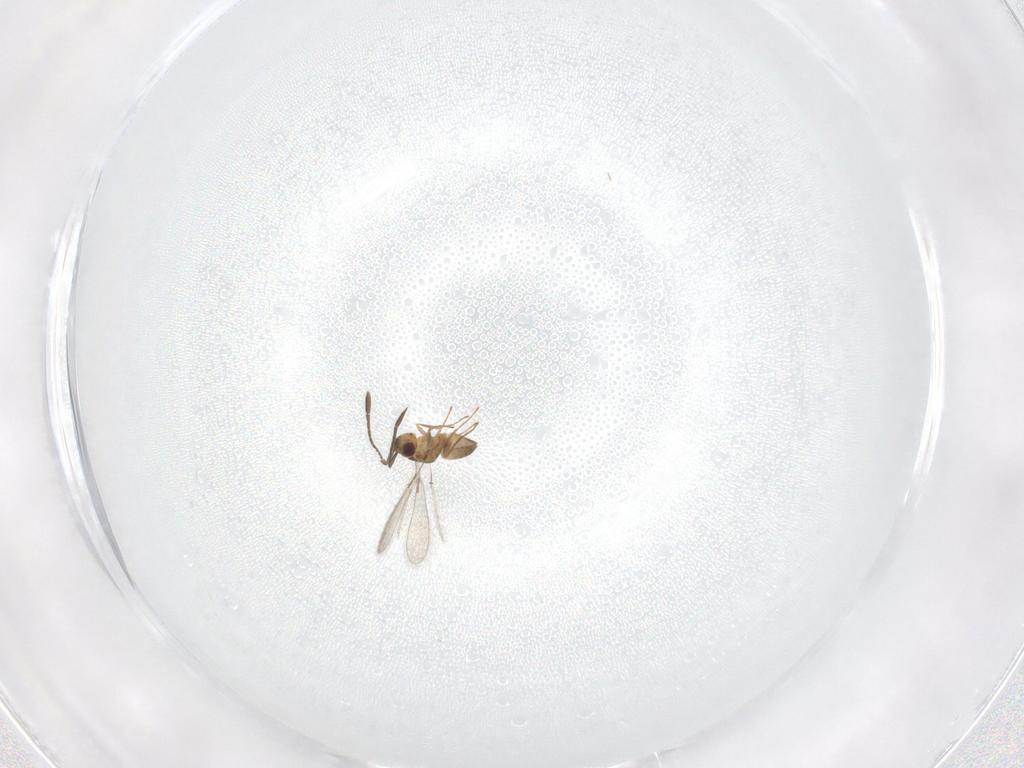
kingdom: Animalia
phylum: Arthropoda
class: Insecta
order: Hymenoptera
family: Mymaridae
